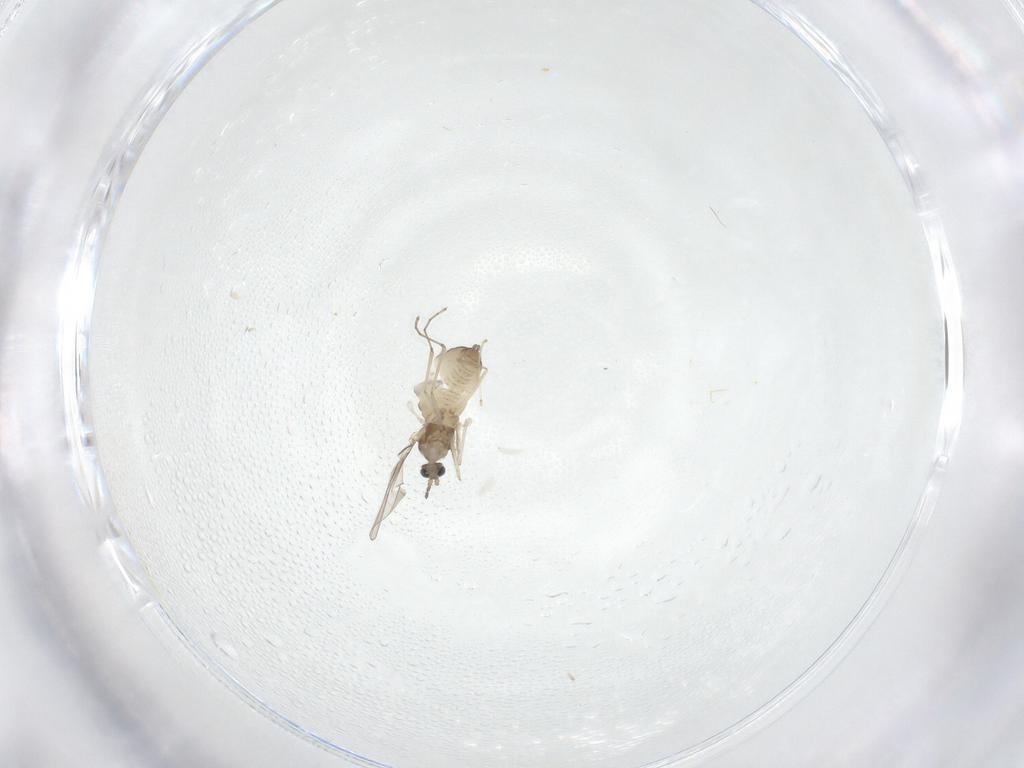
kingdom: Animalia
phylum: Arthropoda
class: Insecta
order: Diptera
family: Cecidomyiidae
